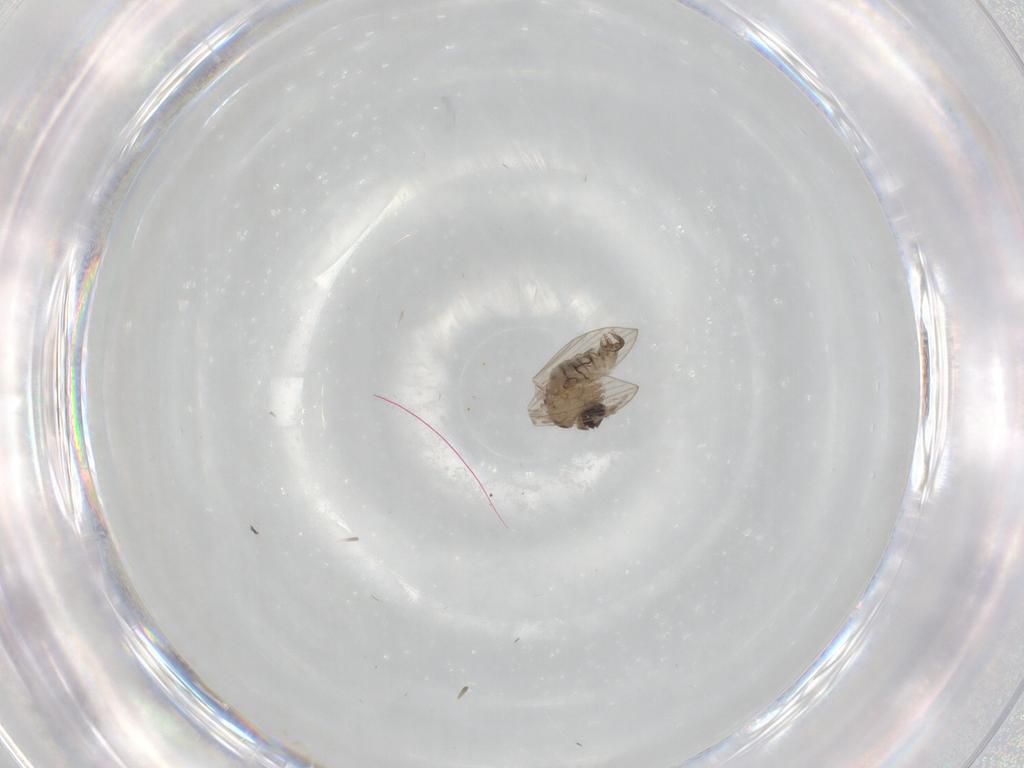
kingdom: Animalia
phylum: Arthropoda
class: Insecta
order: Diptera
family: Psychodidae
